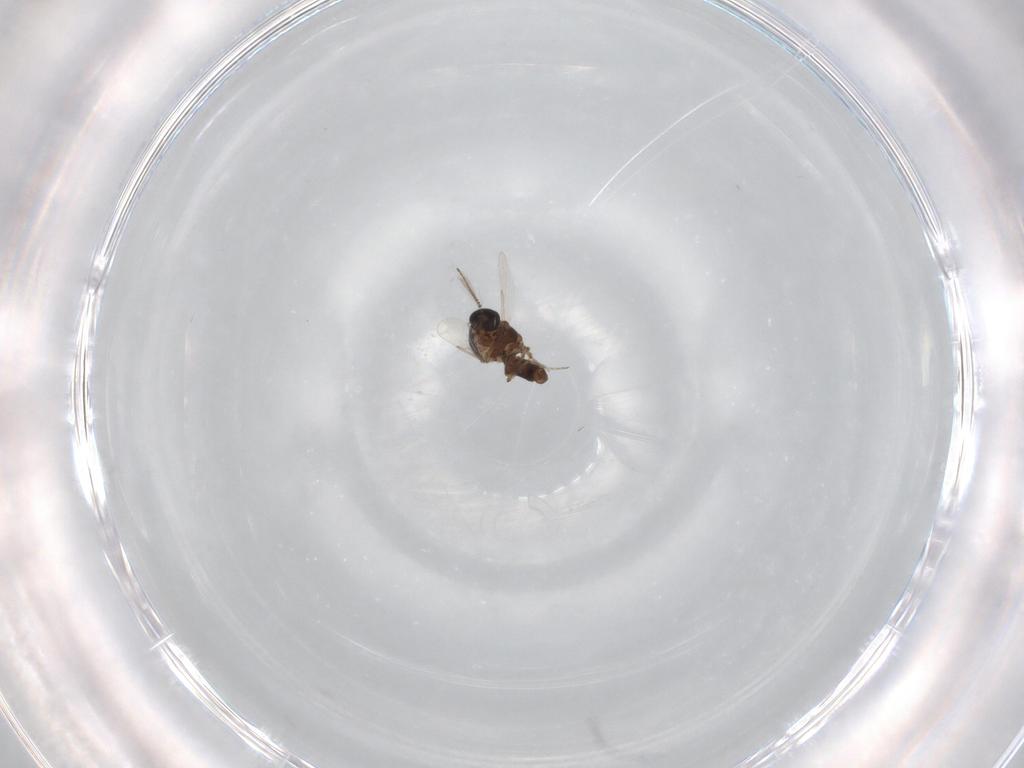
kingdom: Animalia
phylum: Arthropoda
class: Insecta
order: Diptera
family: Ceratopogonidae
